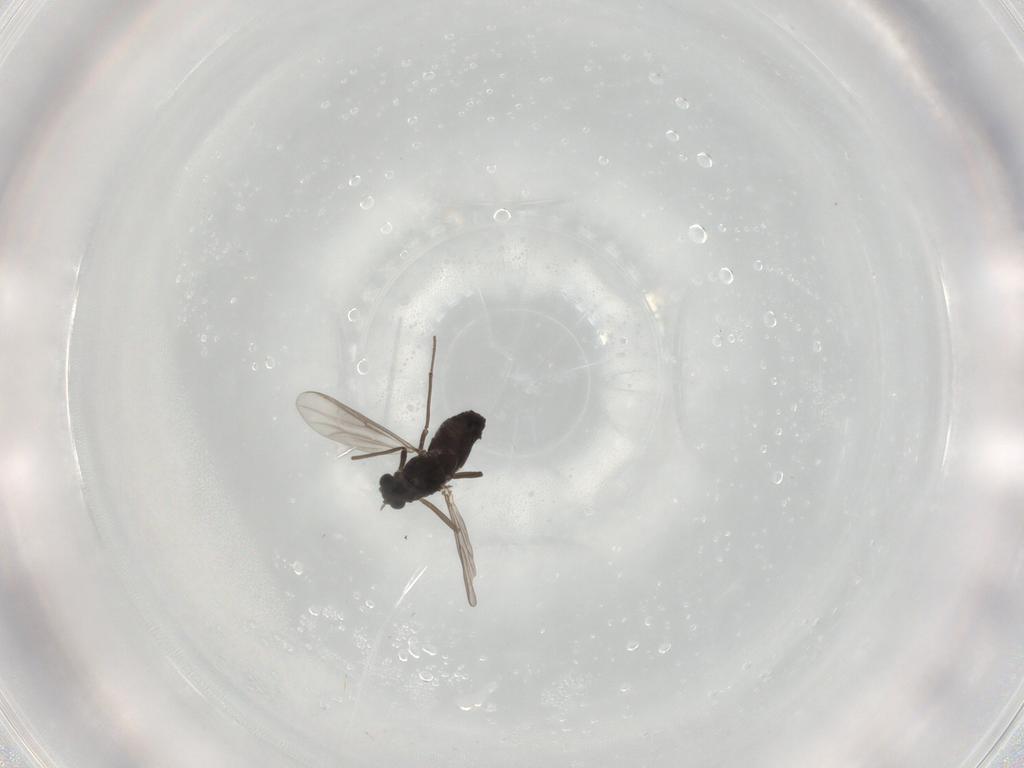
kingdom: Animalia
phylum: Arthropoda
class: Insecta
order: Diptera
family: Chironomidae
